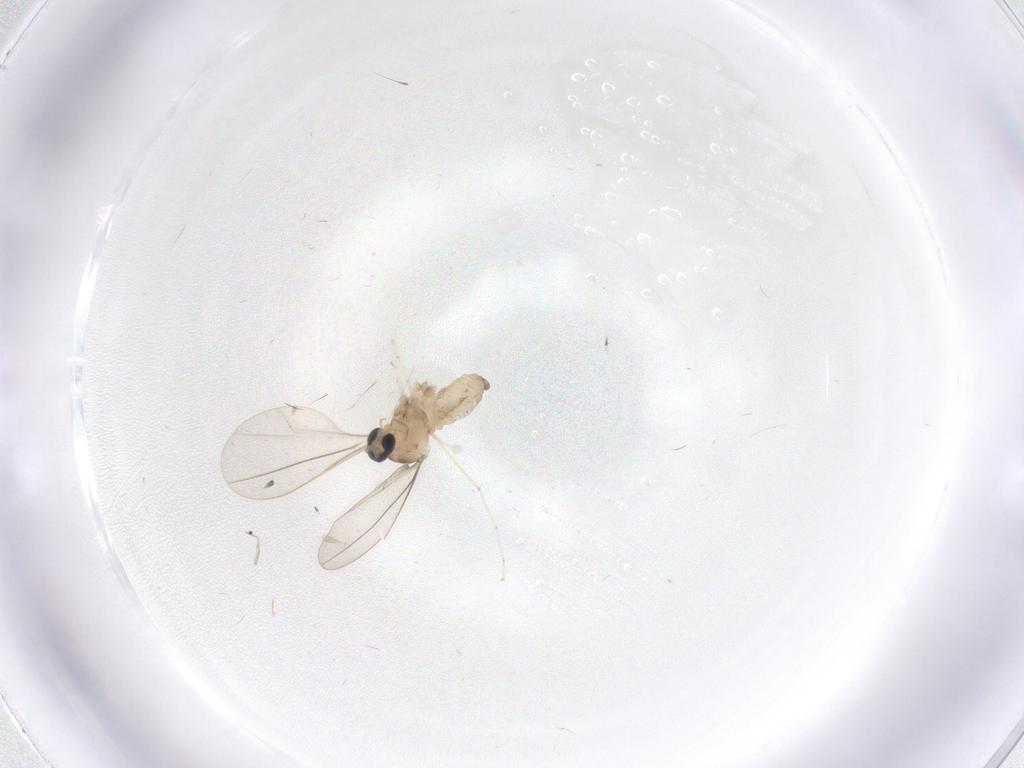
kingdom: Animalia
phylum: Arthropoda
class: Insecta
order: Diptera
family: Cecidomyiidae
